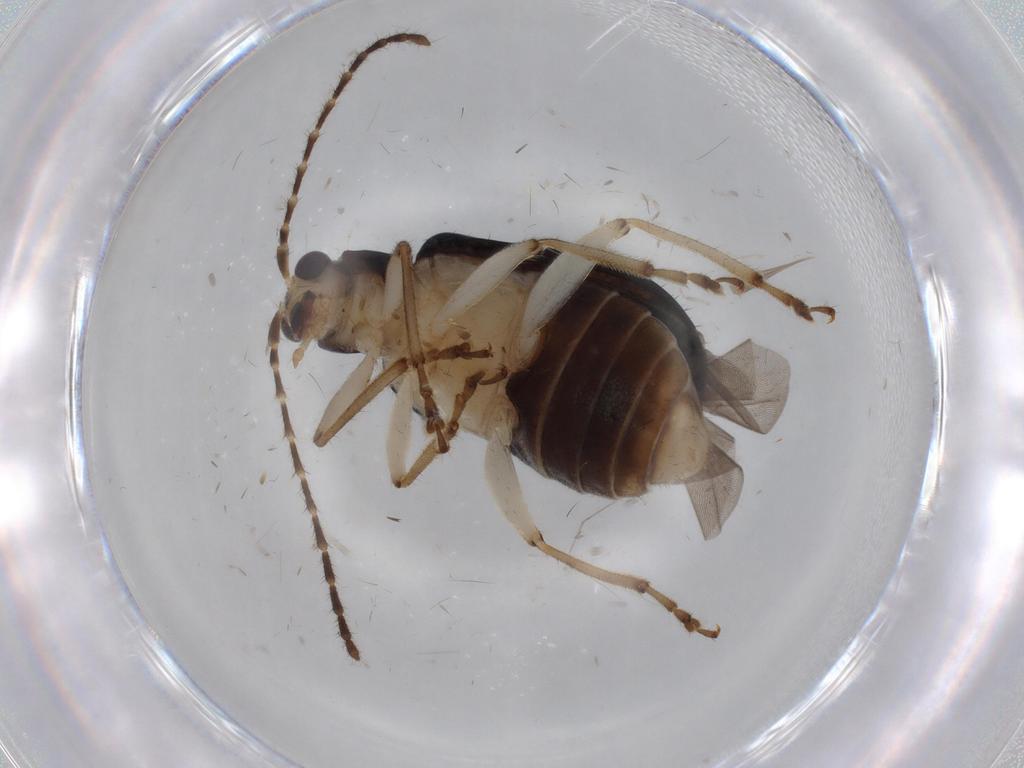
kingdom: Animalia
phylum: Arthropoda
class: Insecta
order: Coleoptera
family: Chrysomelidae
